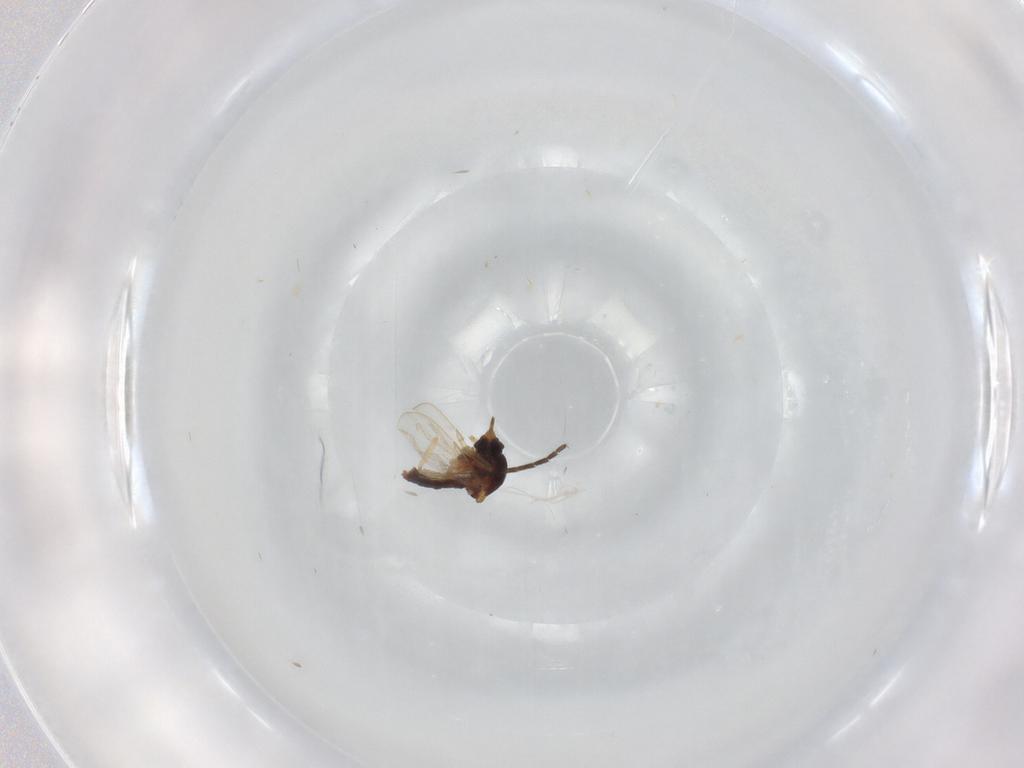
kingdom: Animalia
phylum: Arthropoda
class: Insecta
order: Diptera
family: Sciaridae
